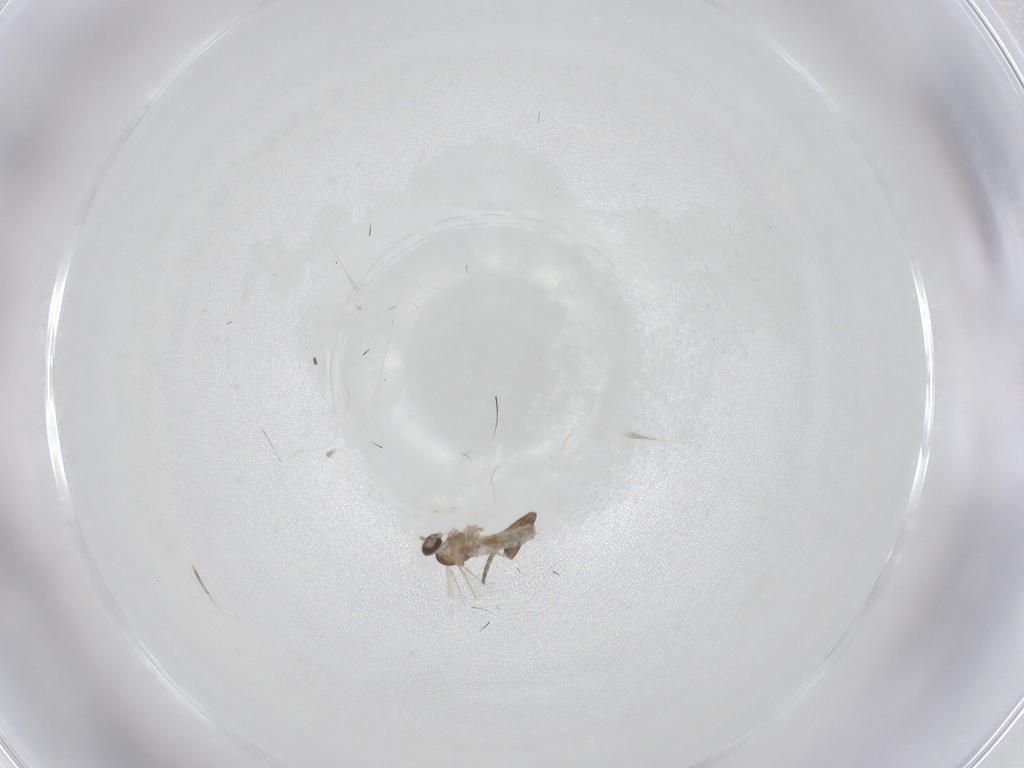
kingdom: Animalia
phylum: Arthropoda
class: Insecta
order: Diptera
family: Cecidomyiidae
